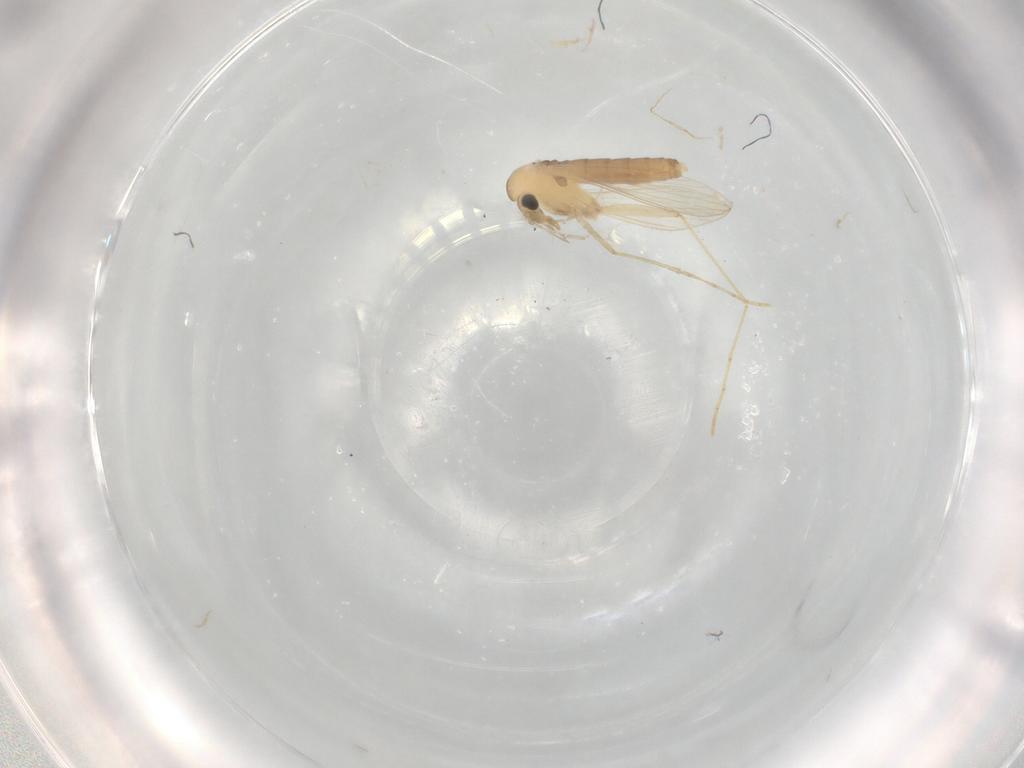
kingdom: Animalia
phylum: Arthropoda
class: Insecta
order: Diptera
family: Psychodidae
